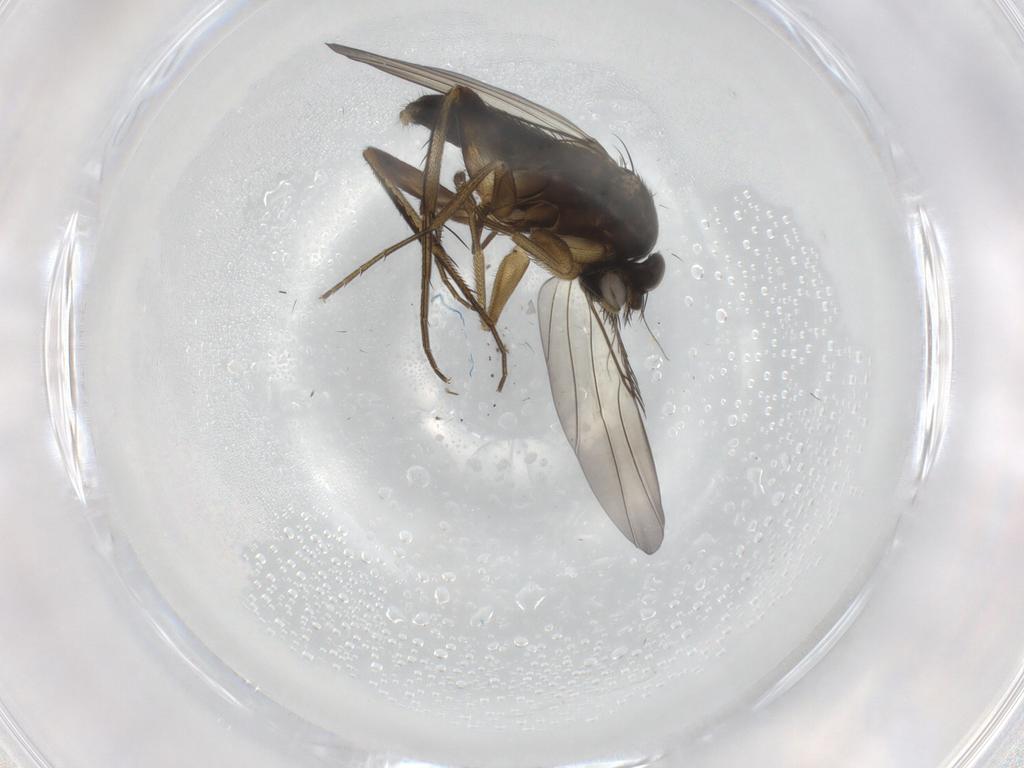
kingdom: Animalia
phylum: Arthropoda
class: Insecta
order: Diptera
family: Phoridae
